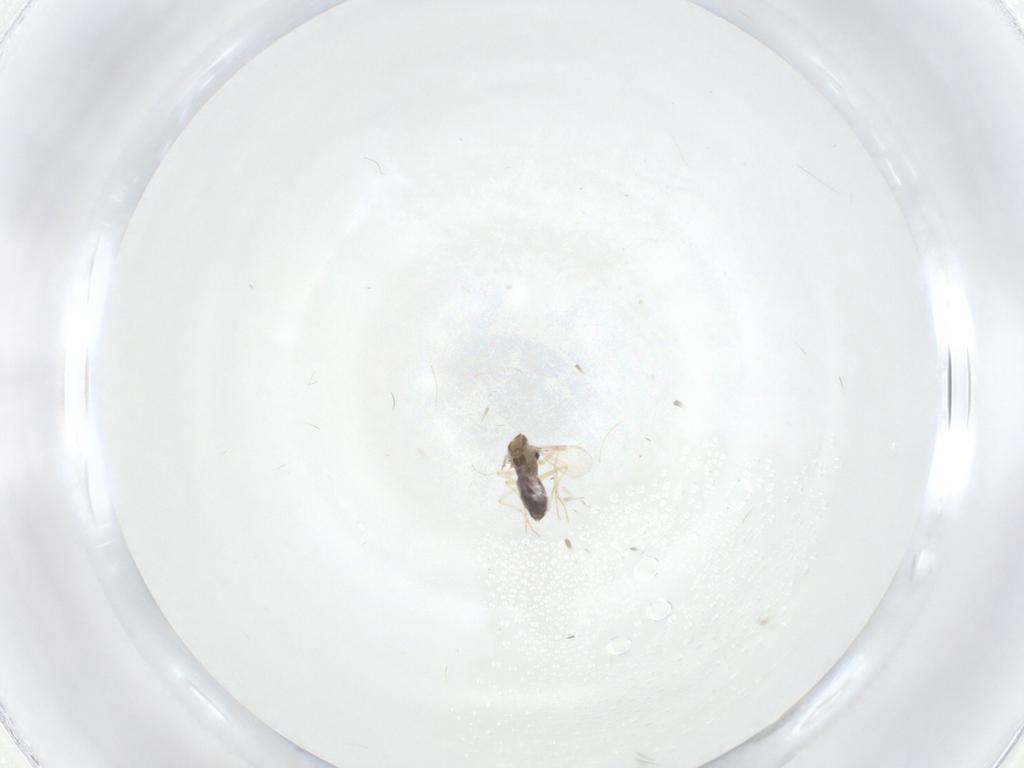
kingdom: Animalia
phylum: Arthropoda
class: Insecta
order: Diptera
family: Chironomidae
